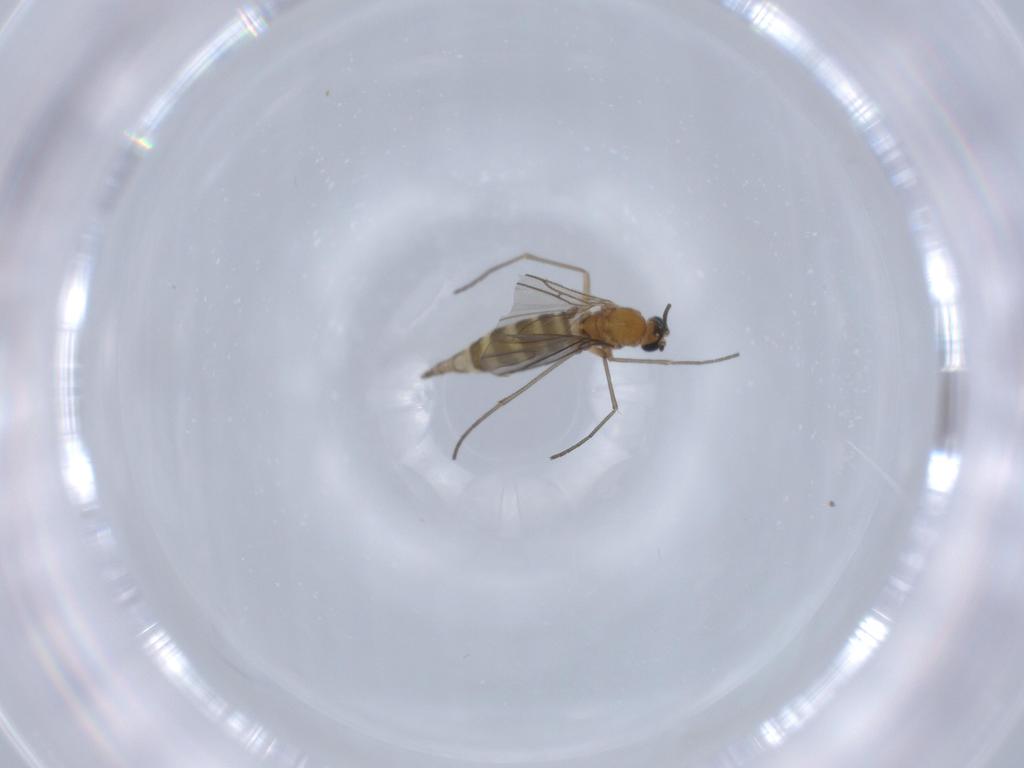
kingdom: Animalia
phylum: Arthropoda
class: Insecta
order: Diptera
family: Sciaridae
